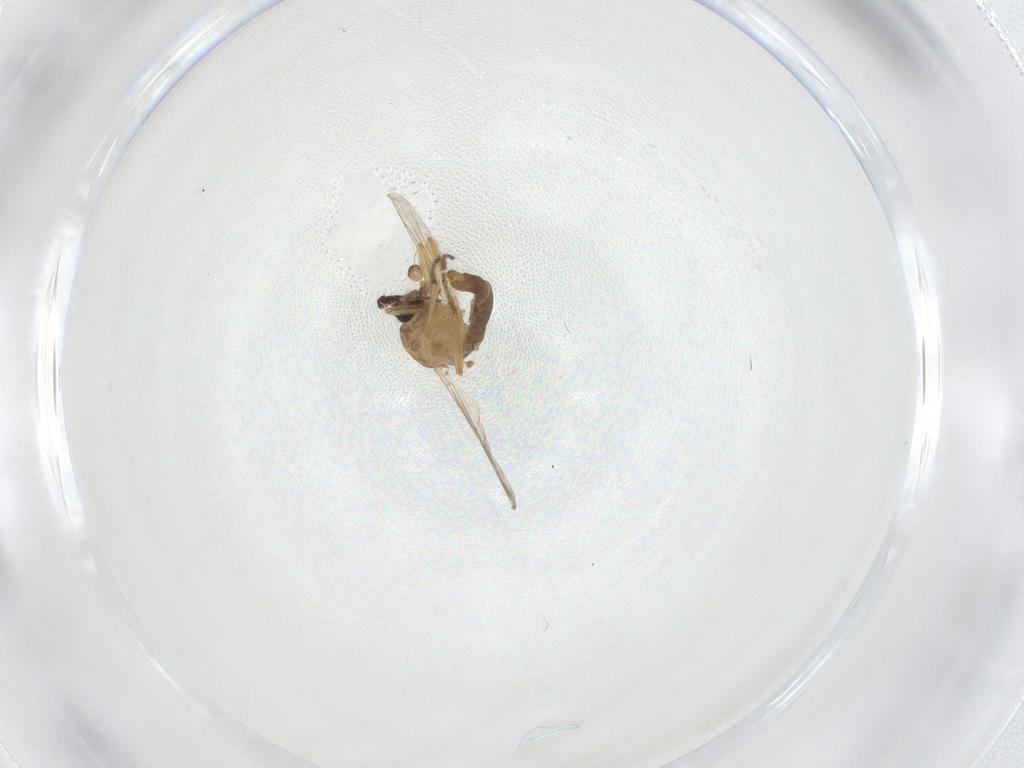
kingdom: Animalia
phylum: Arthropoda
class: Insecta
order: Diptera
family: Ceratopogonidae
